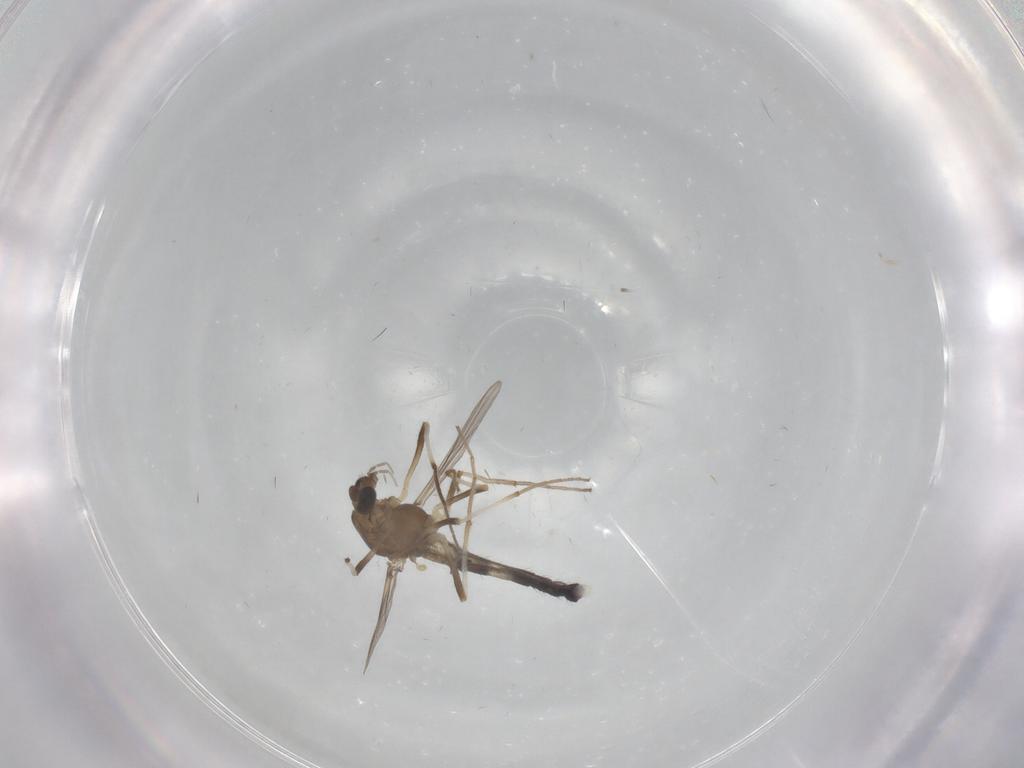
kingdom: Animalia
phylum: Arthropoda
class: Insecta
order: Diptera
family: Chironomidae
